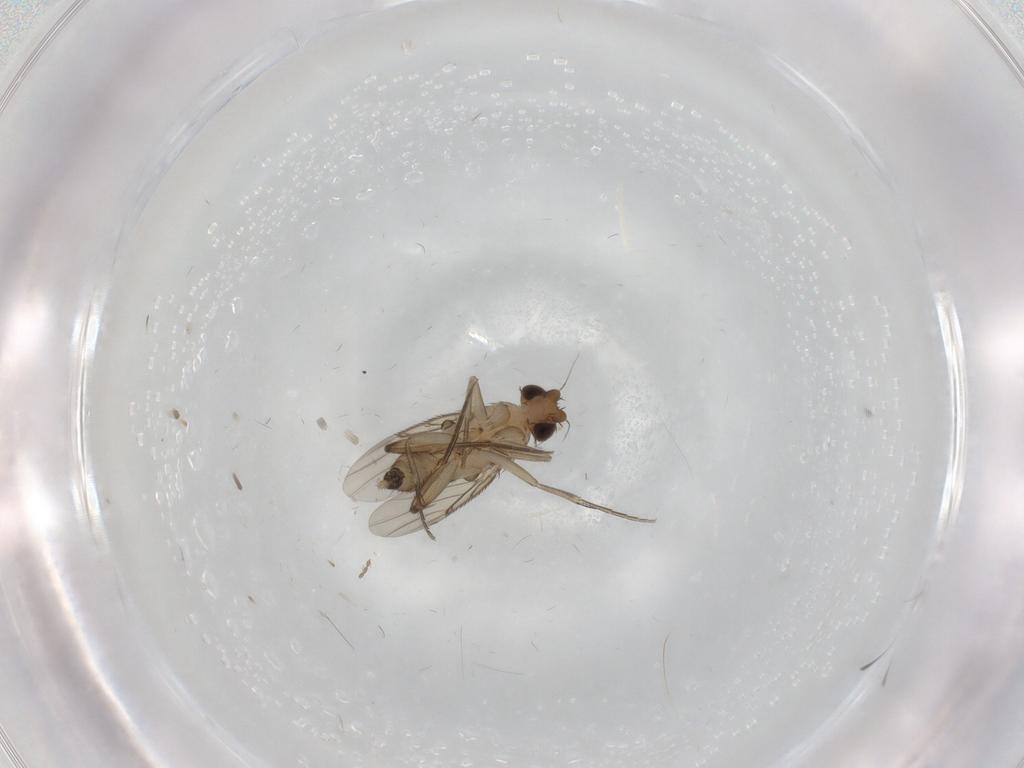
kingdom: Animalia
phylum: Arthropoda
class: Insecta
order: Diptera
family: Cecidomyiidae
